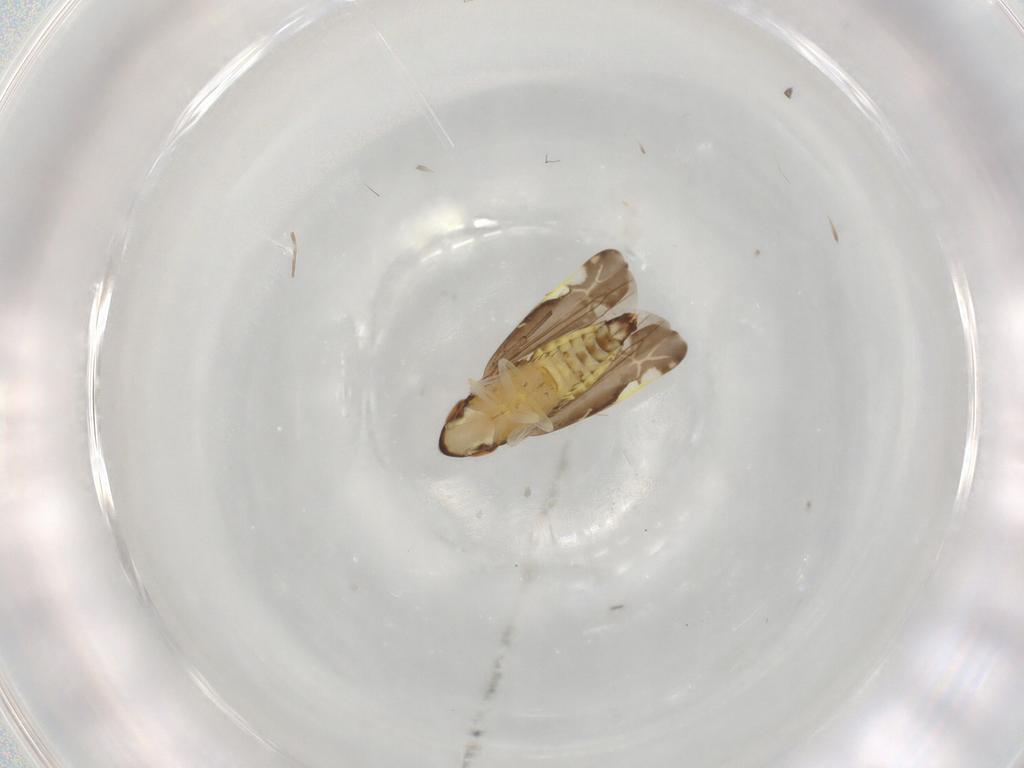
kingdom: Animalia
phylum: Arthropoda
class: Insecta
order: Hemiptera
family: Cicadellidae
